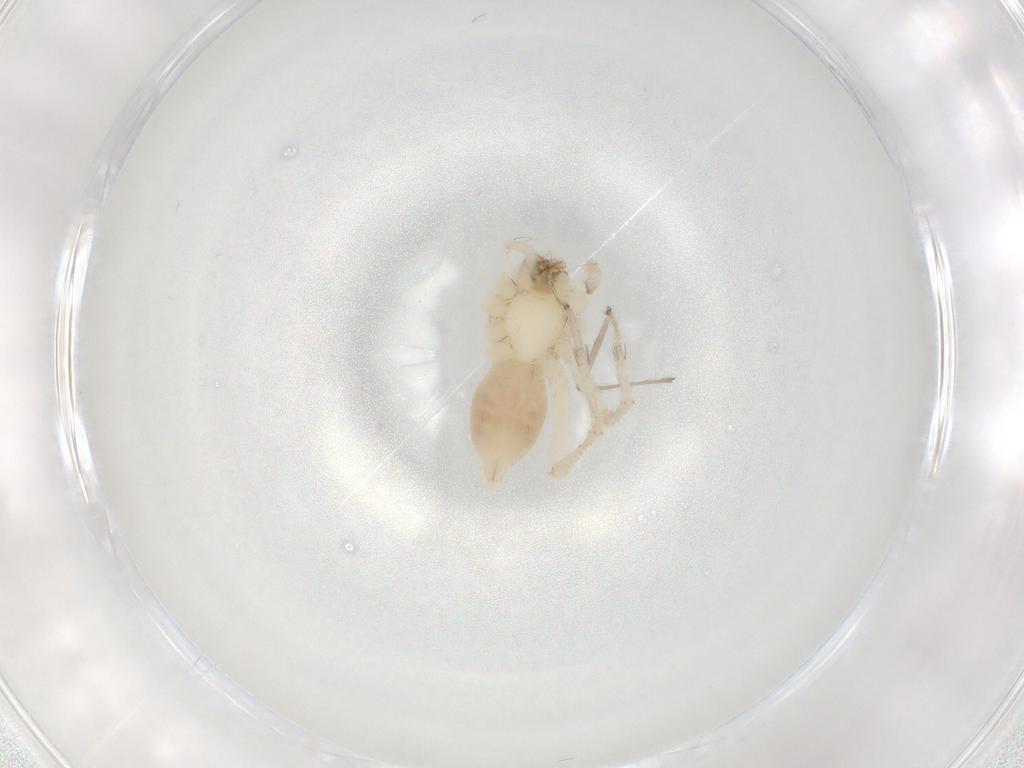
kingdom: Animalia
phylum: Arthropoda
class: Arachnida
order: Araneae
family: Anyphaenidae
